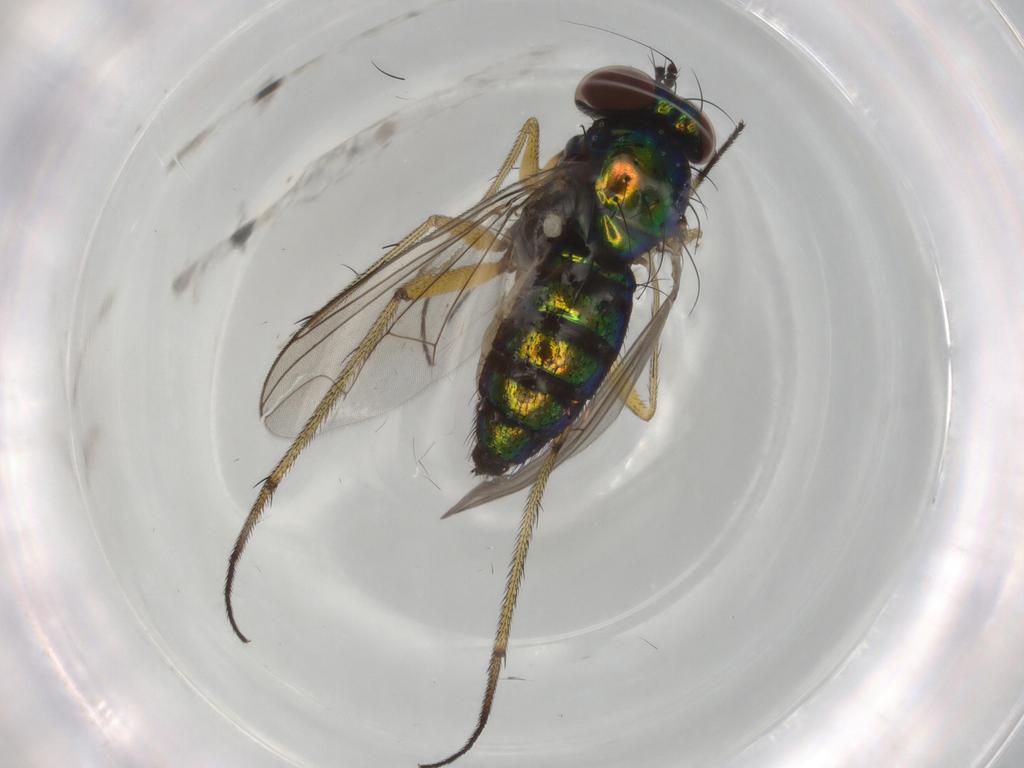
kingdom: Animalia
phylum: Arthropoda
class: Insecta
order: Diptera
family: Dolichopodidae
